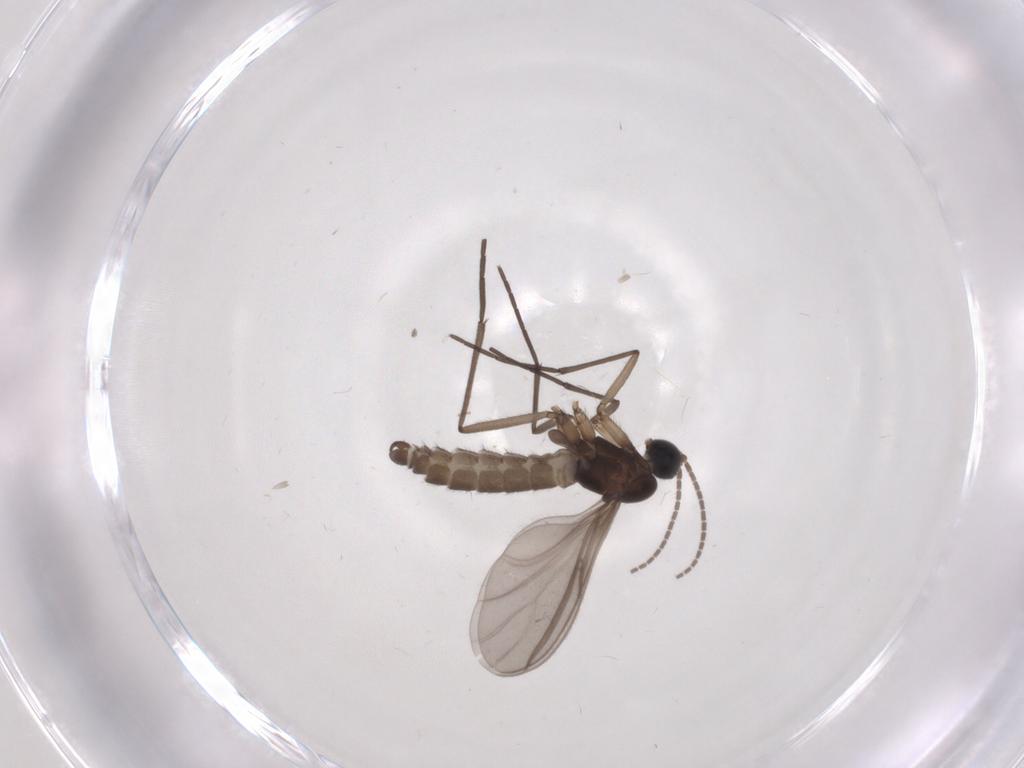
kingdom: Animalia
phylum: Arthropoda
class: Insecta
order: Diptera
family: Sciaridae
